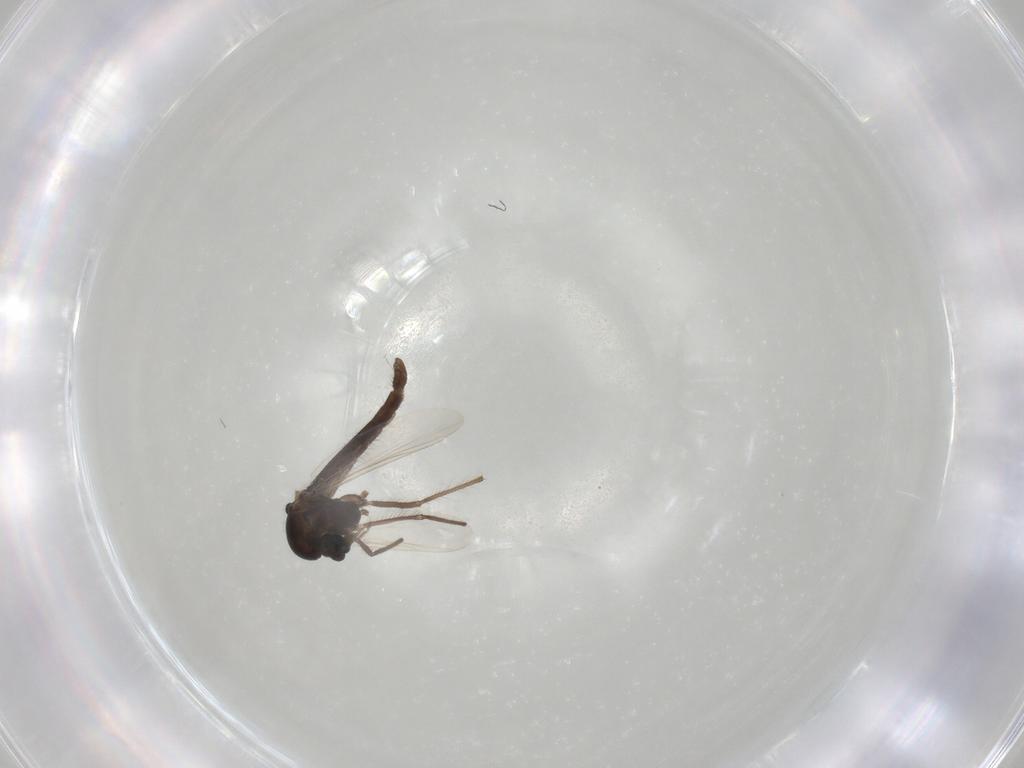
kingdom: Animalia
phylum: Arthropoda
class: Insecta
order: Diptera
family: Chironomidae
